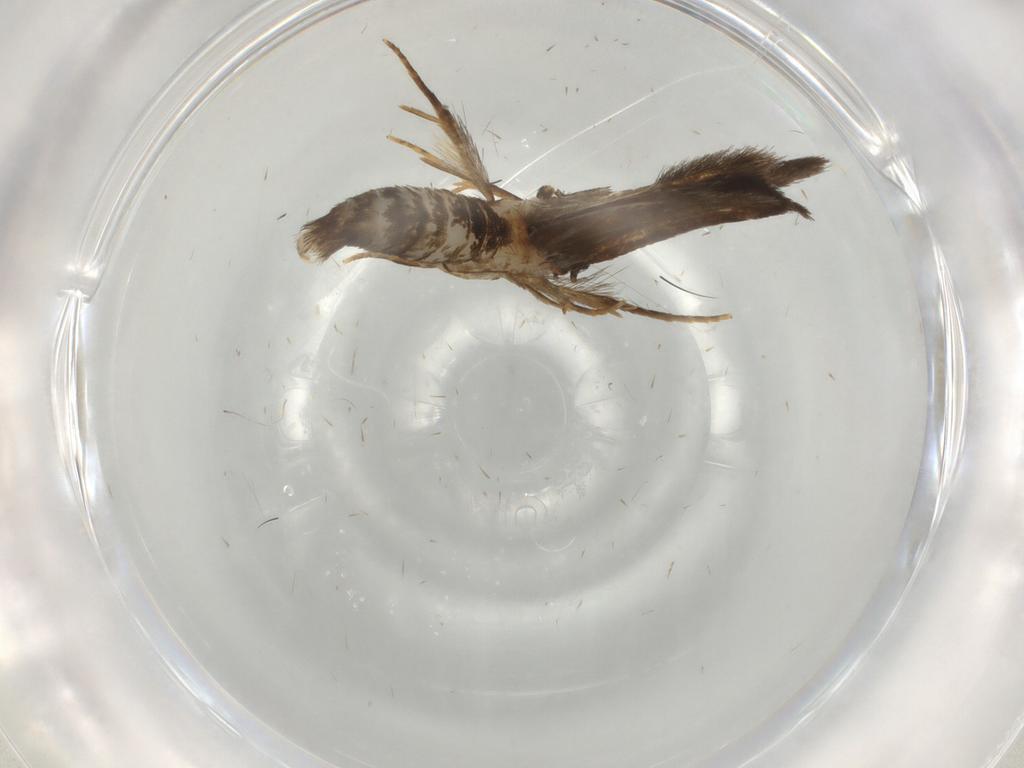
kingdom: Animalia
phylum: Arthropoda
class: Insecta
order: Lepidoptera
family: Tineidae
